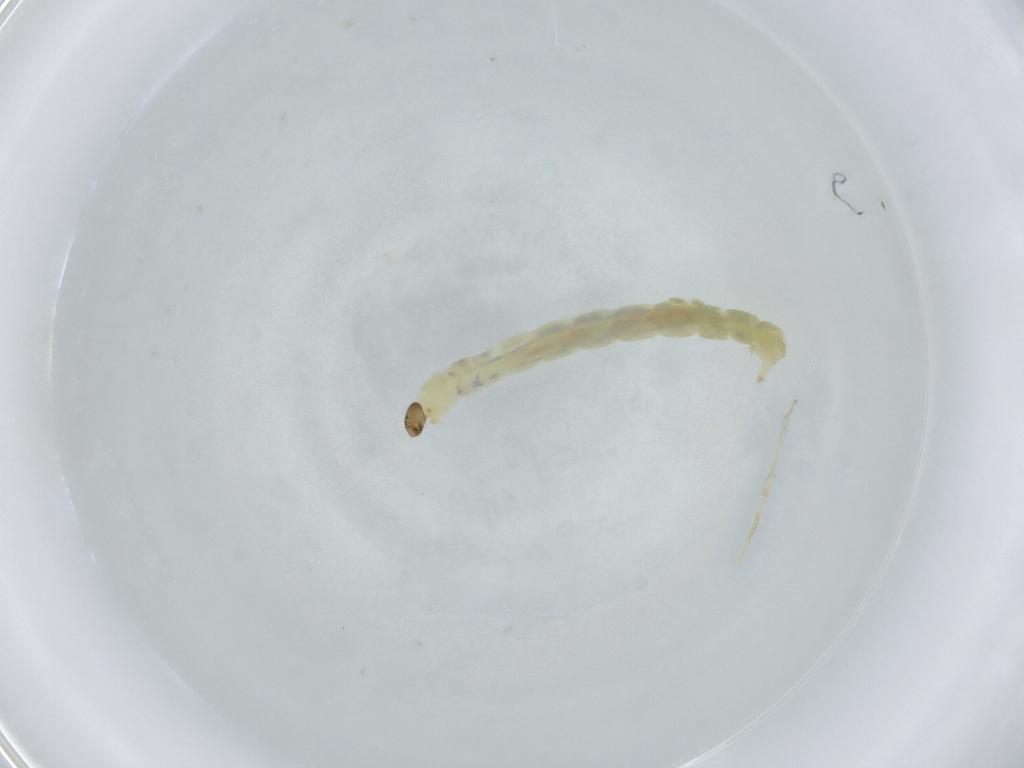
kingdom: Animalia
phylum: Arthropoda
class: Insecta
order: Diptera
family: Chironomidae
